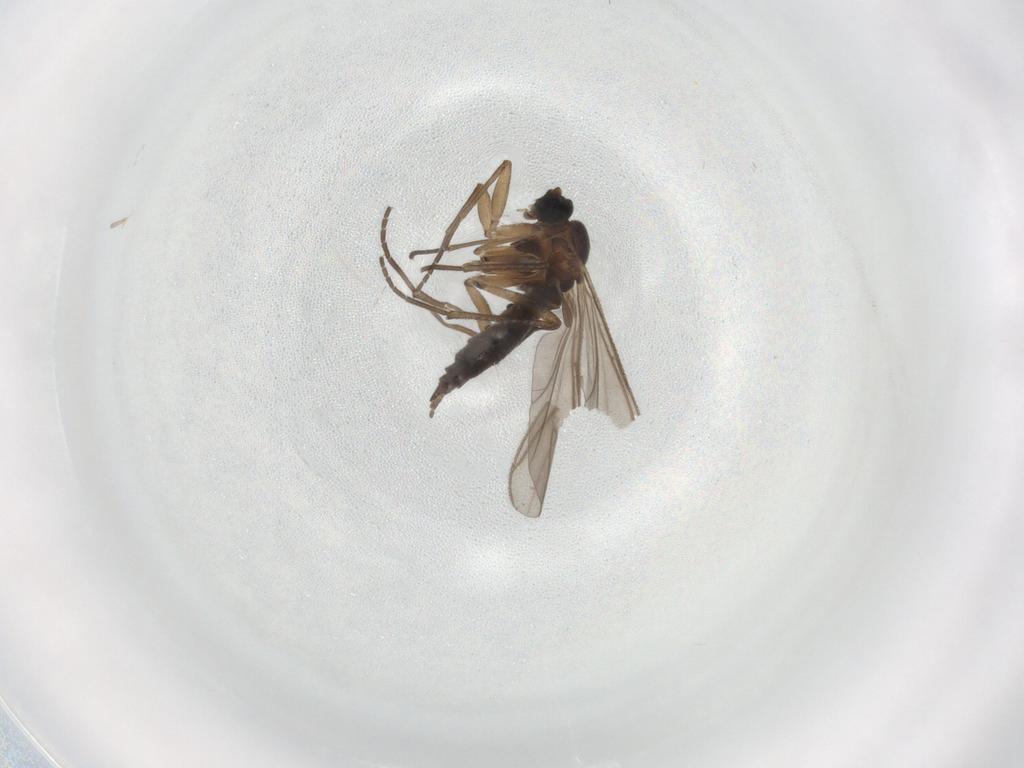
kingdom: Animalia
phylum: Arthropoda
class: Insecta
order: Diptera
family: Sciaridae
